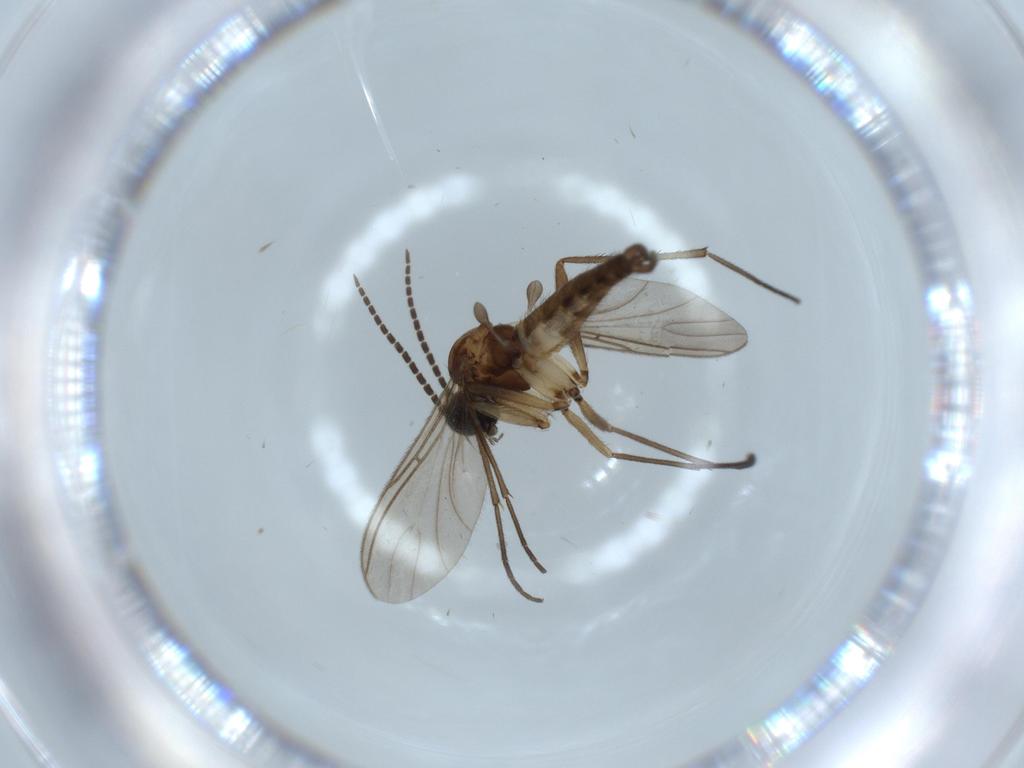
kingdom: Animalia
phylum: Arthropoda
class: Insecta
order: Diptera
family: Sciaridae
